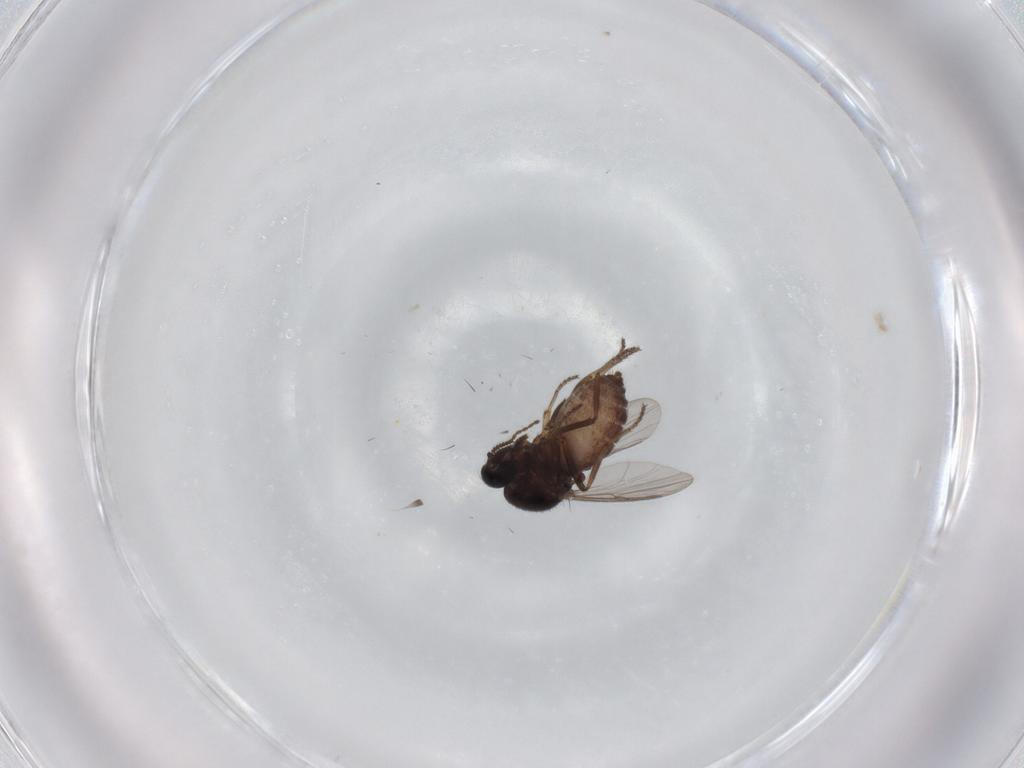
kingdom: Animalia
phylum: Arthropoda
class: Insecta
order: Diptera
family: Ceratopogonidae
